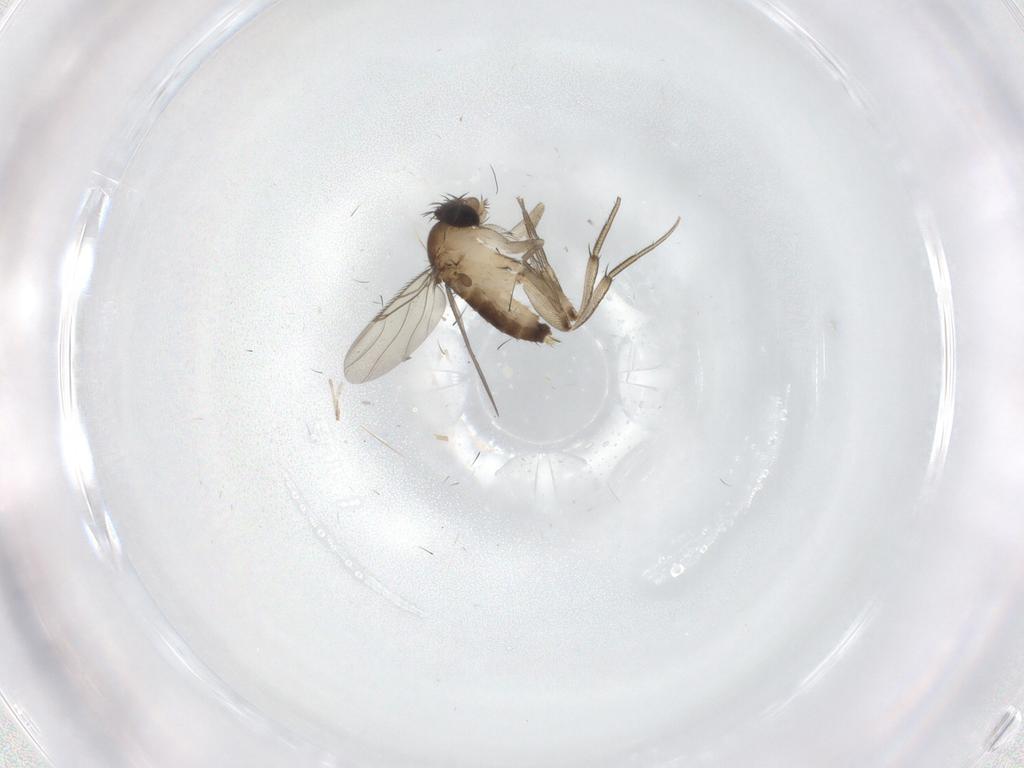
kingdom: Animalia
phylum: Arthropoda
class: Insecta
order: Diptera
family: Phoridae
